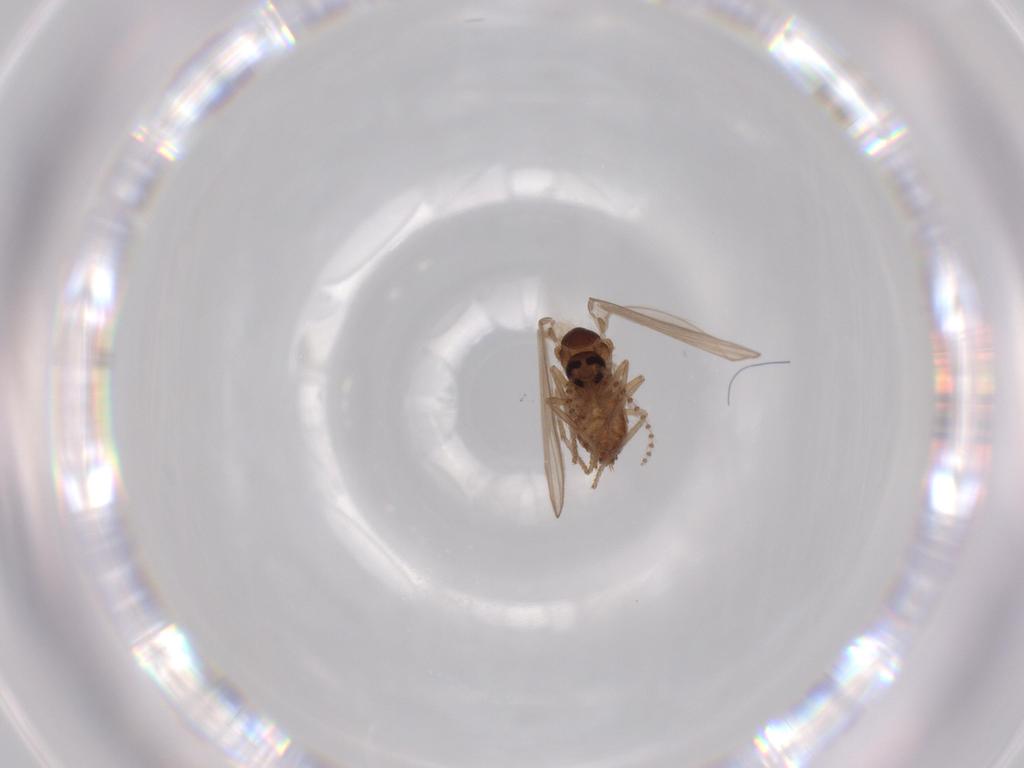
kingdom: Animalia
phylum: Arthropoda
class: Insecta
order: Diptera
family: Psychodidae
